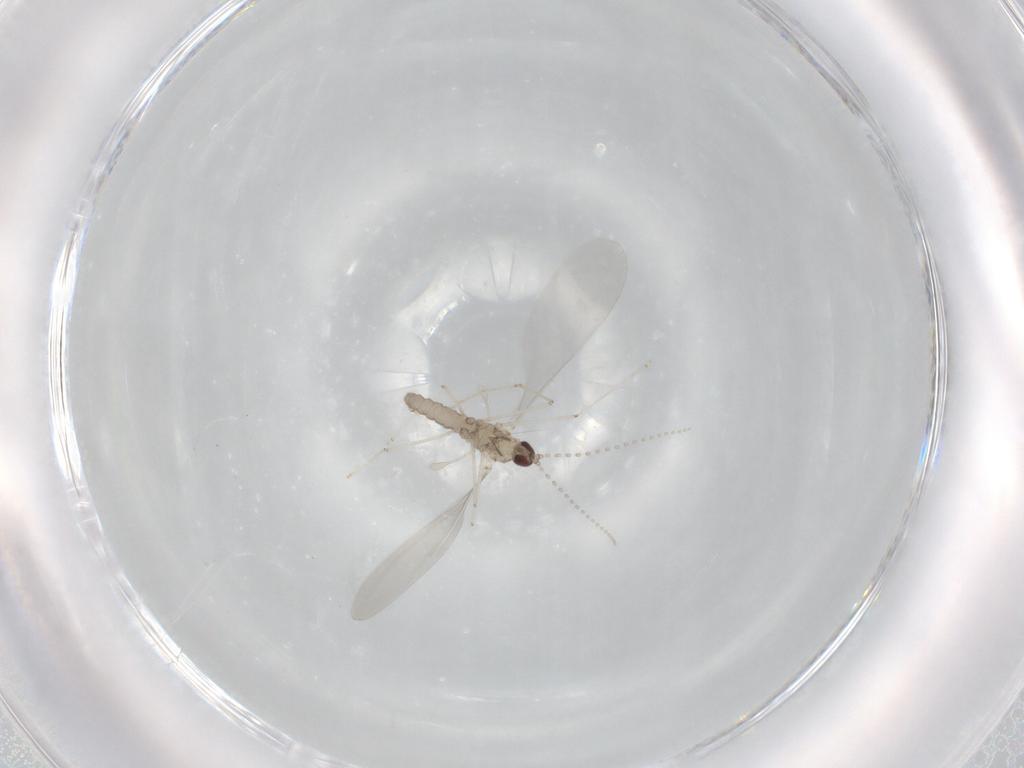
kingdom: Animalia
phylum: Arthropoda
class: Insecta
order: Diptera
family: Cecidomyiidae
